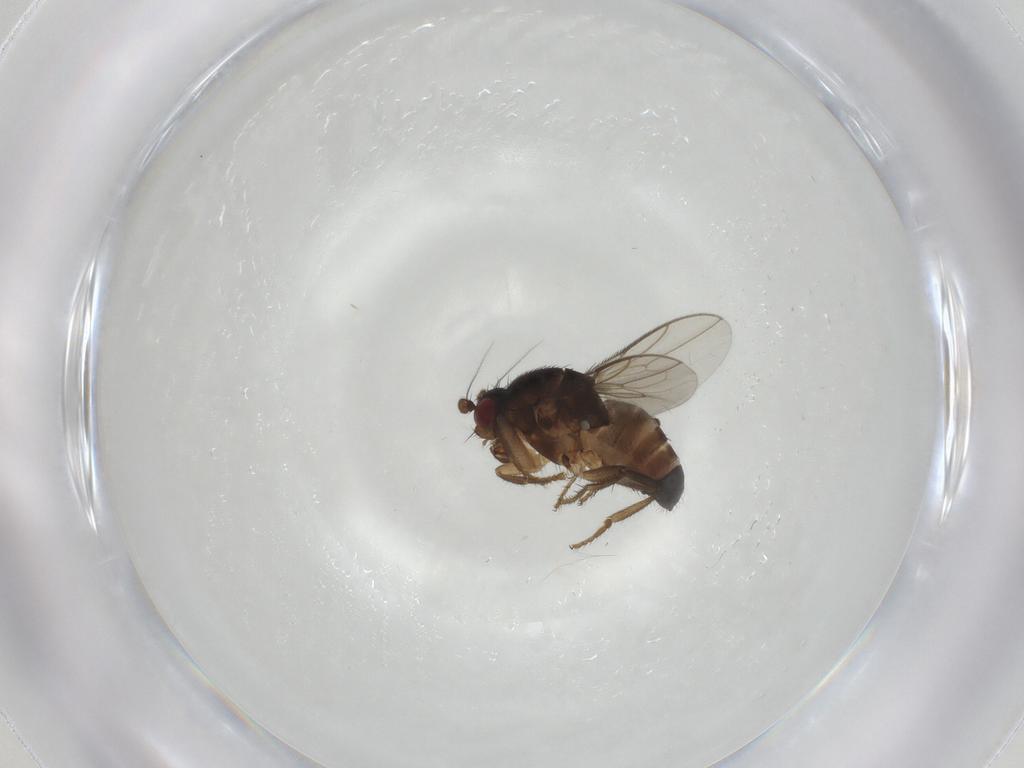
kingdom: Animalia
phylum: Arthropoda
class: Insecta
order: Diptera
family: Sphaeroceridae
